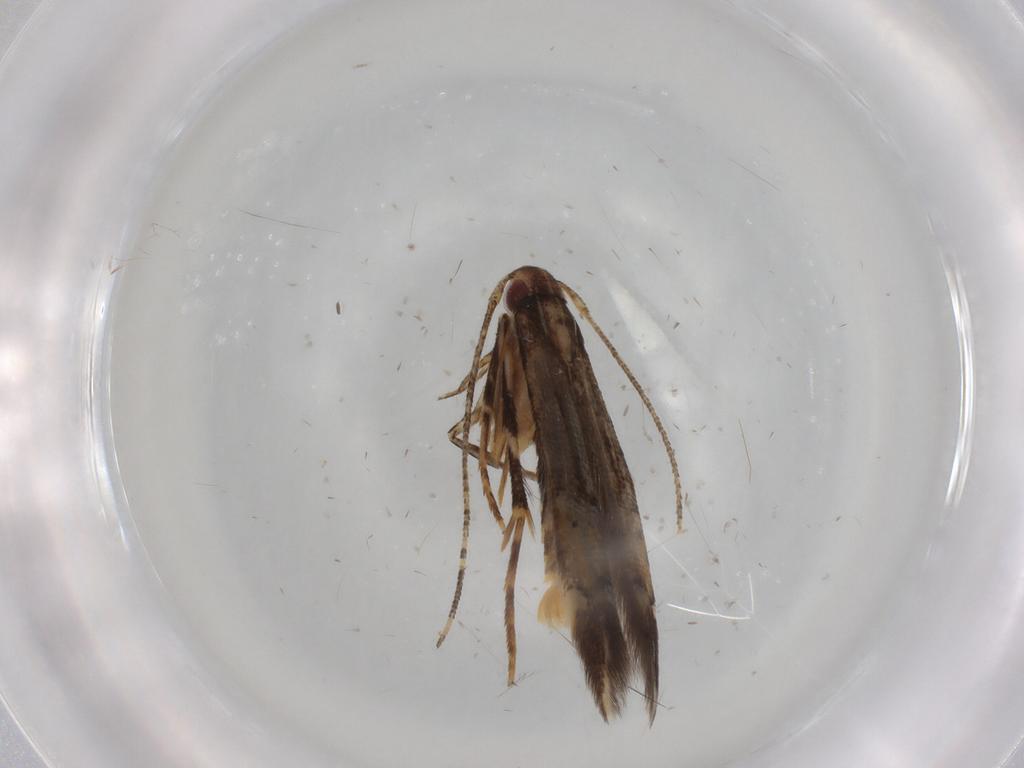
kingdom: Animalia
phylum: Arthropoda
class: Insecta
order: Lepidoptera
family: Cosmopterigidae
